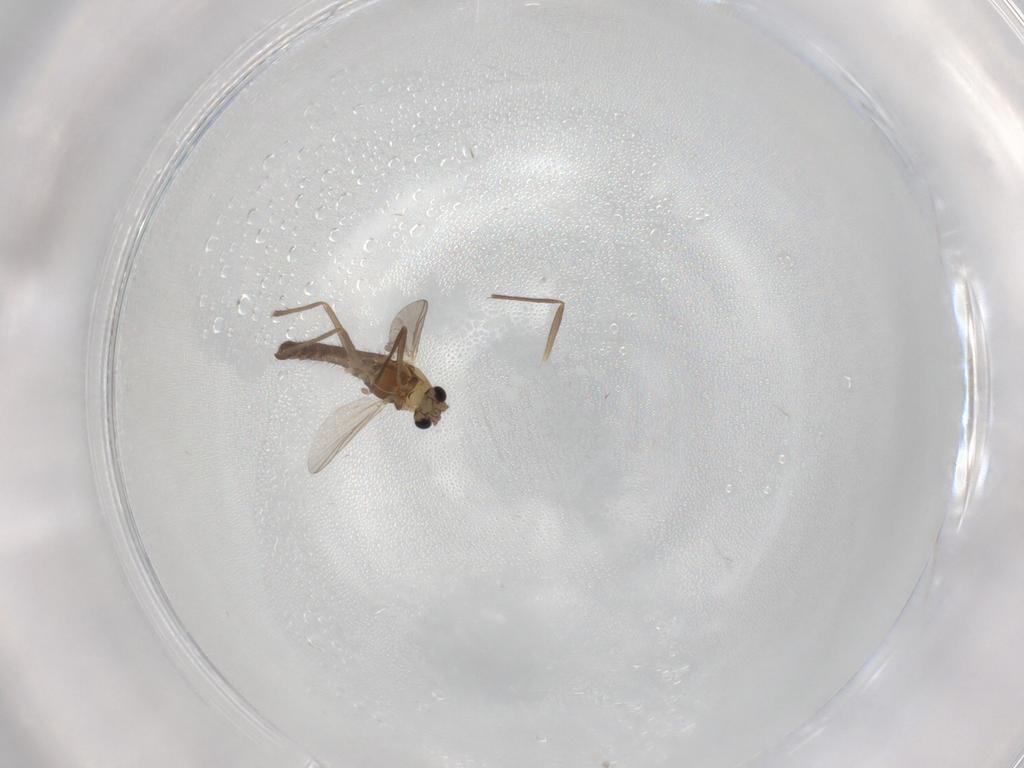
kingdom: Animalia
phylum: Arthropoda
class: Insecta
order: Diptera
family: Chironomidae
